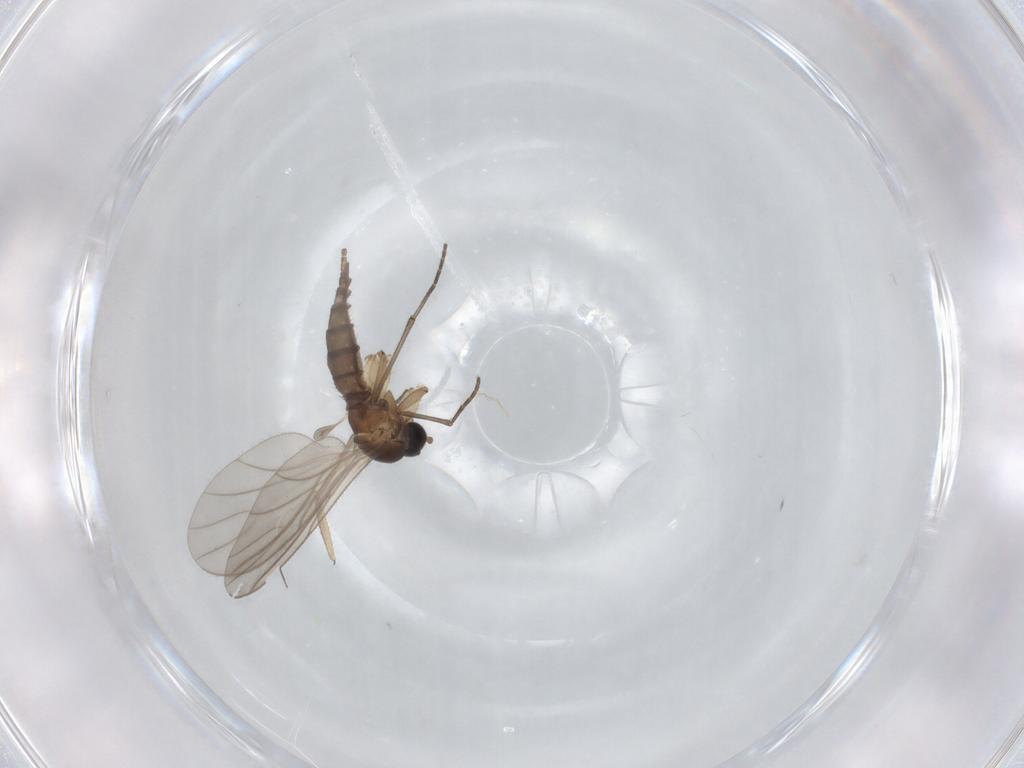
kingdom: Animalia
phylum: Arthropoda
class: Insecta
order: Diptera
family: Sciaridae
